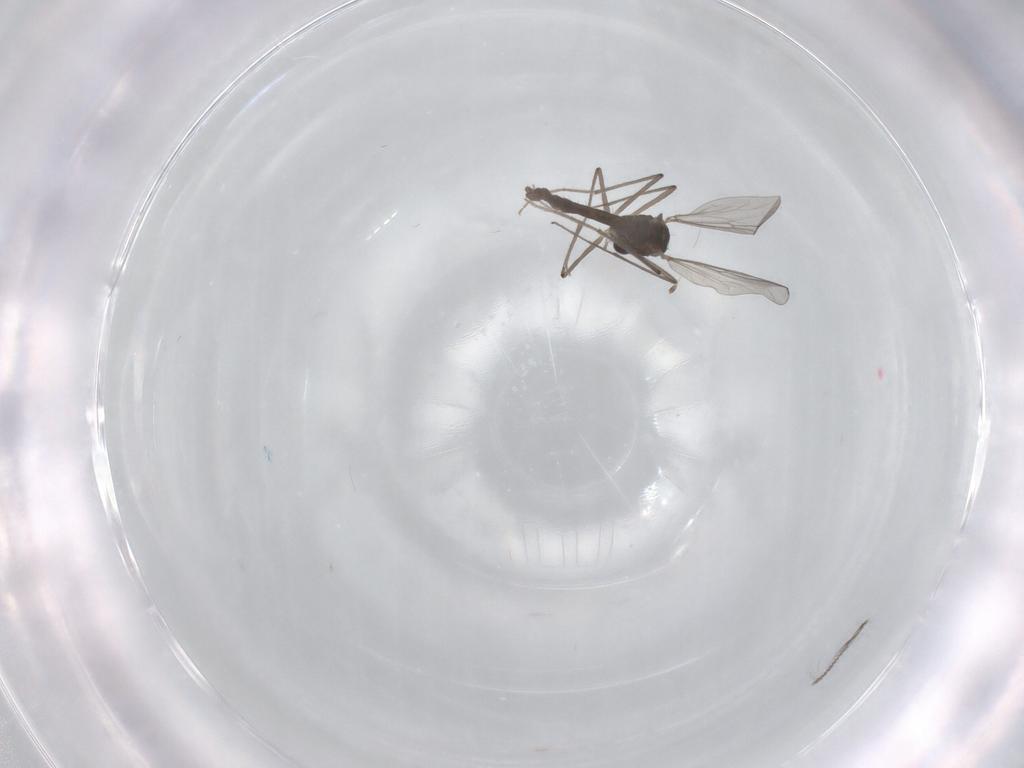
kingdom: Animalia
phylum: Arthropoda
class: Insecta
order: Diptera
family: Chironomidae
